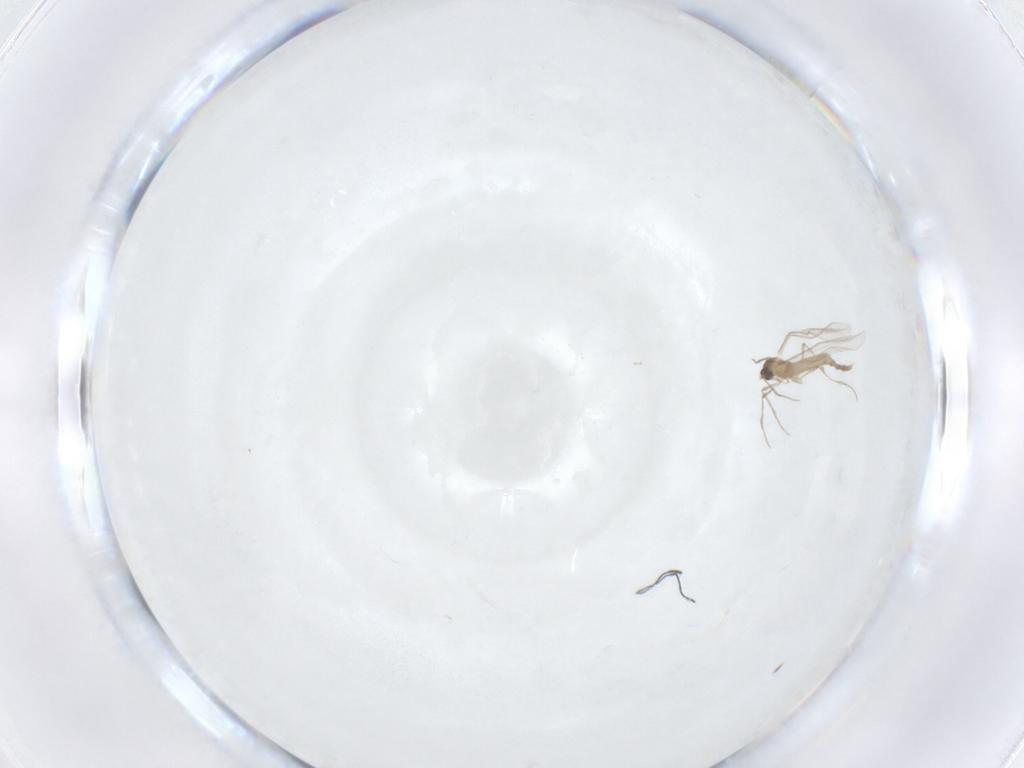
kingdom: Animalia
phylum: Arthropoda
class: Insecta
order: Diptera
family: Cecidomyiidae
